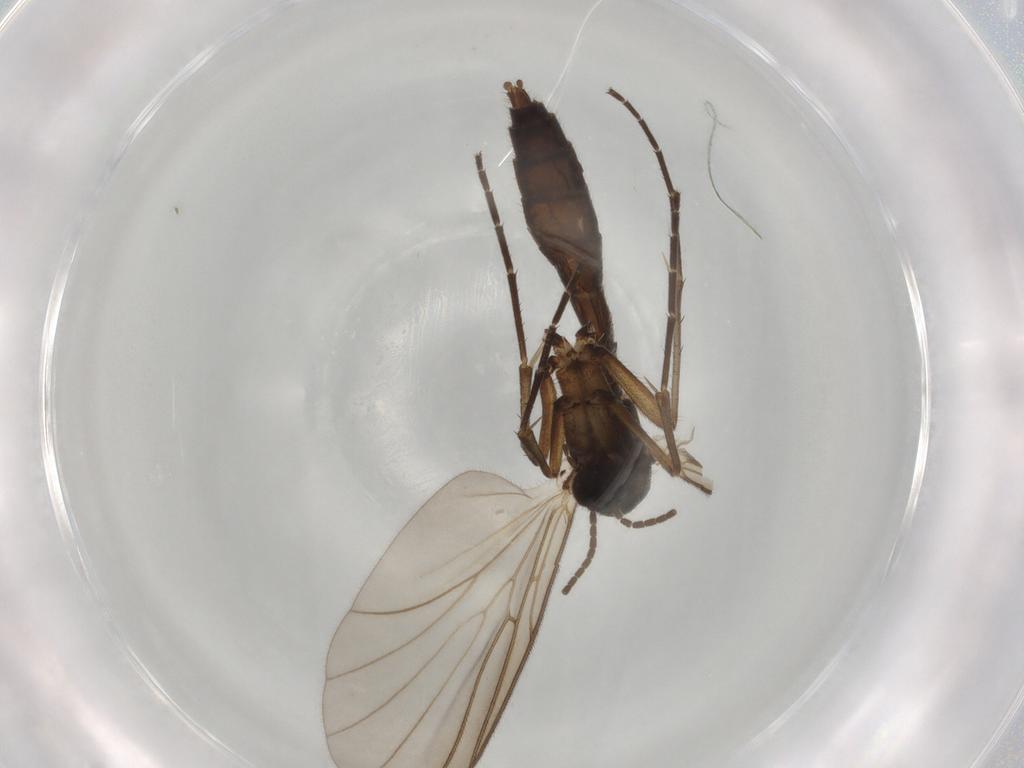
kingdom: Animalia
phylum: Arthropoda
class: Insecta
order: Diptera
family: Mycetophilidae
